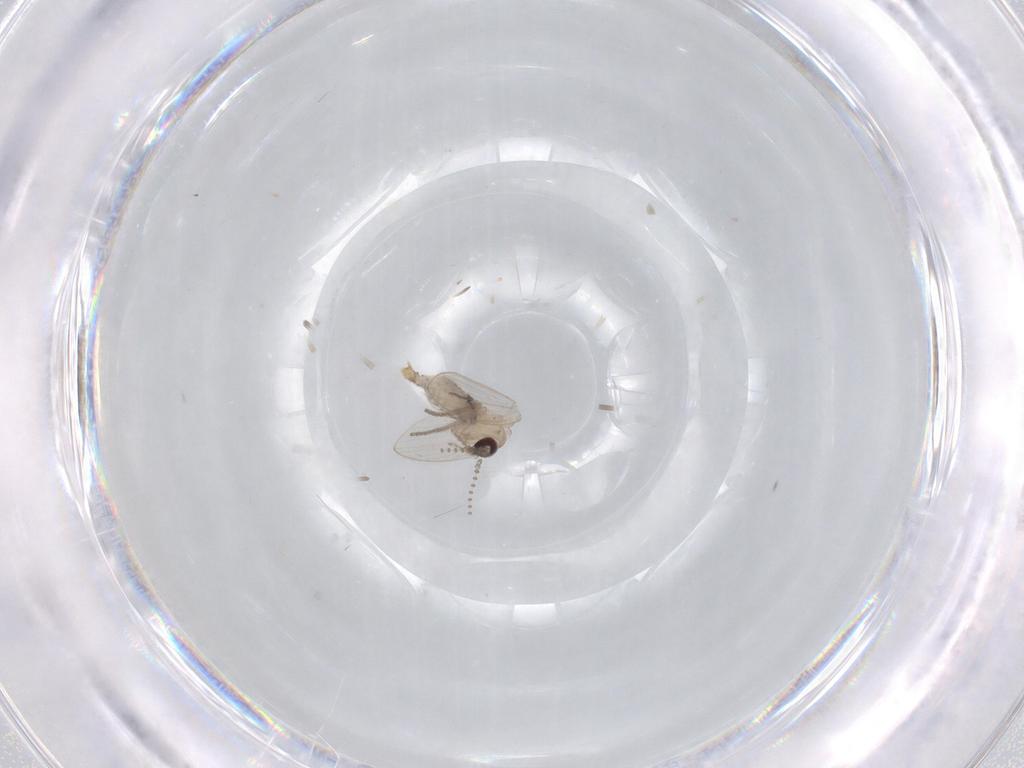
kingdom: Animalia
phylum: Arthropoda
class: Insecta
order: Diptera
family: Psychodidae
